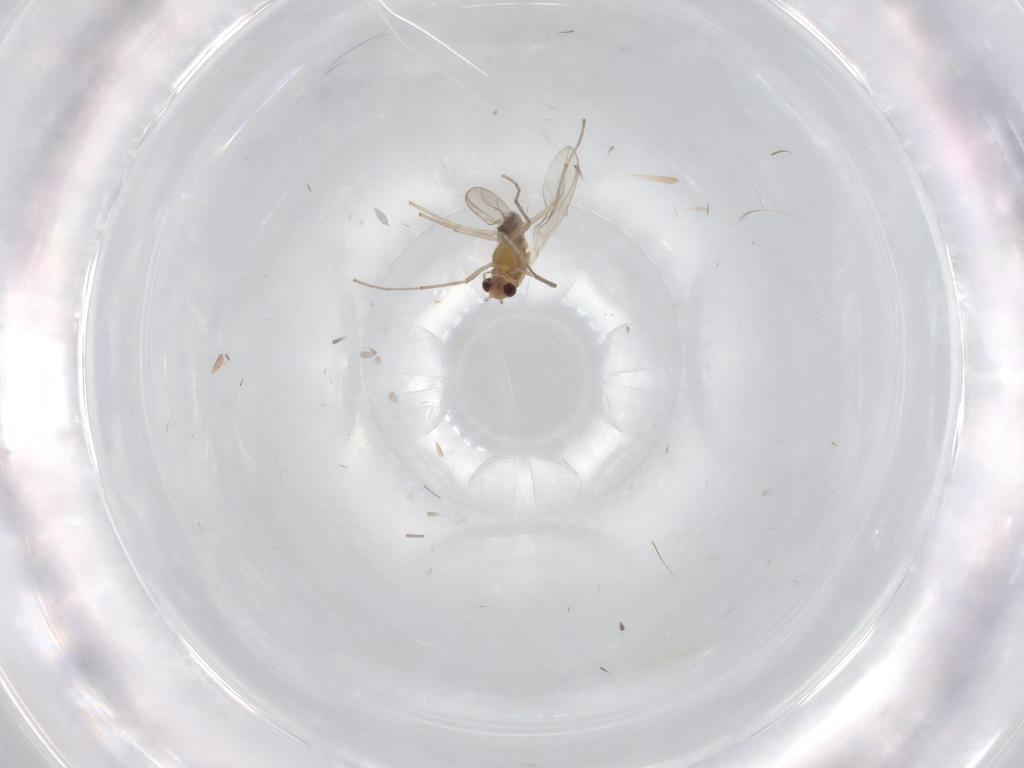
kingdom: Animalia
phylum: Arthropoda
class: Insecta
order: Diptera
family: Chironomidae
